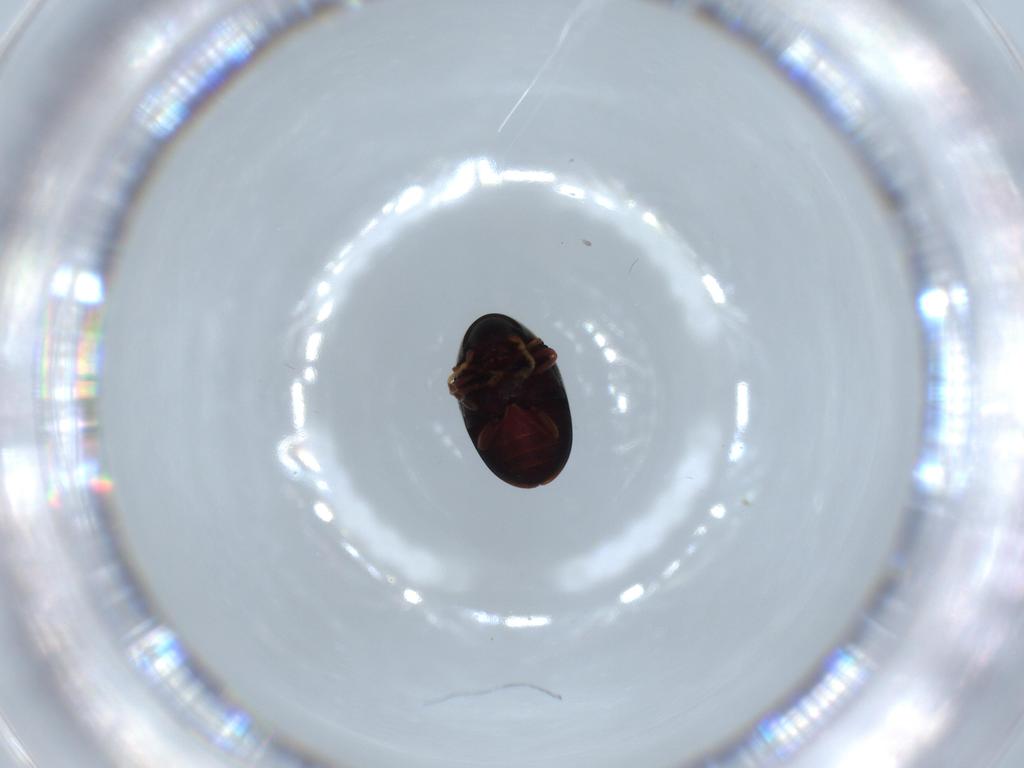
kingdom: Animalia
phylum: Arthropoda
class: Insecta
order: Coleoptera
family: Ptinidae
